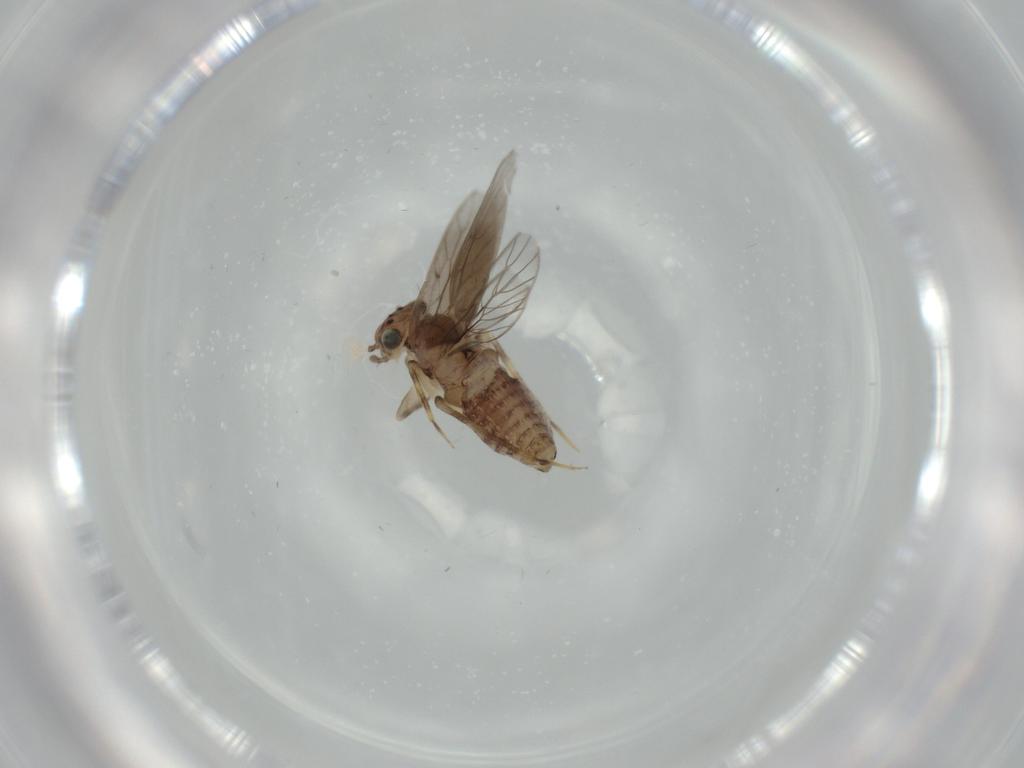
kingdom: Animalia
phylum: Arthropoda
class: Insecta
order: Psocodea
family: Lepidopsocidae
